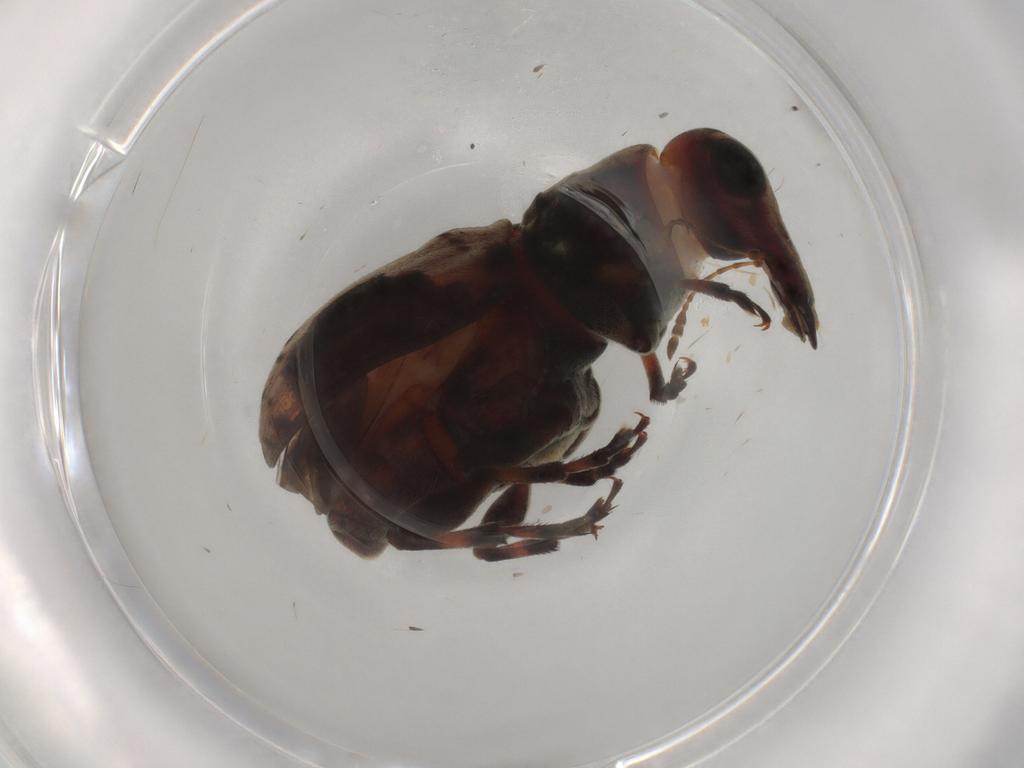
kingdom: Animalia
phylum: Arthropoda
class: Insecta
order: Coleoptera
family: Anthribidae
